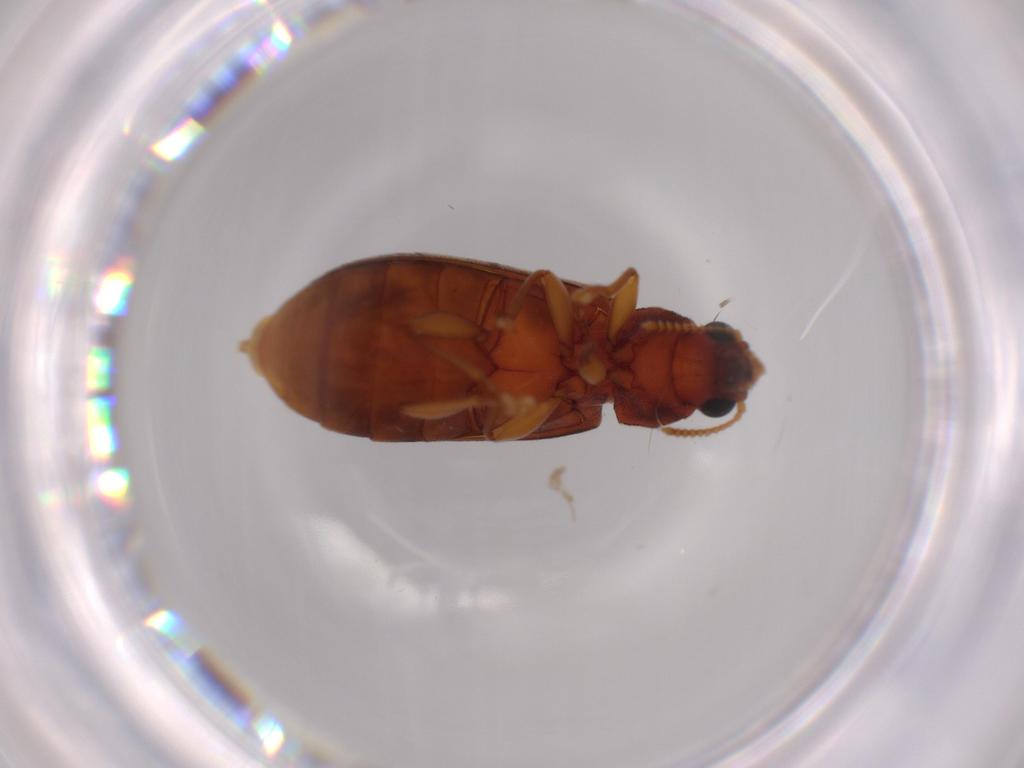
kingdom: Animalia
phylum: Arthropoda
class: Insecta
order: Coleoptera
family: Mycteridae
